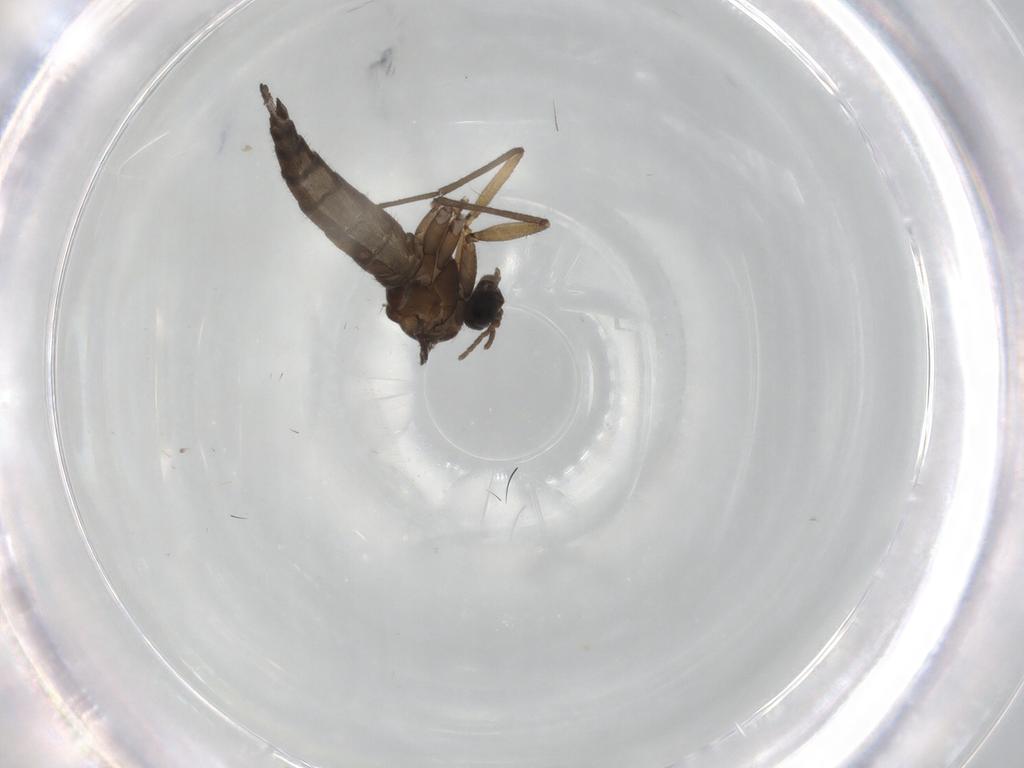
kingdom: Animalia
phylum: Arthropoda
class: Insecta
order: Diptera
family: Sciaridae
